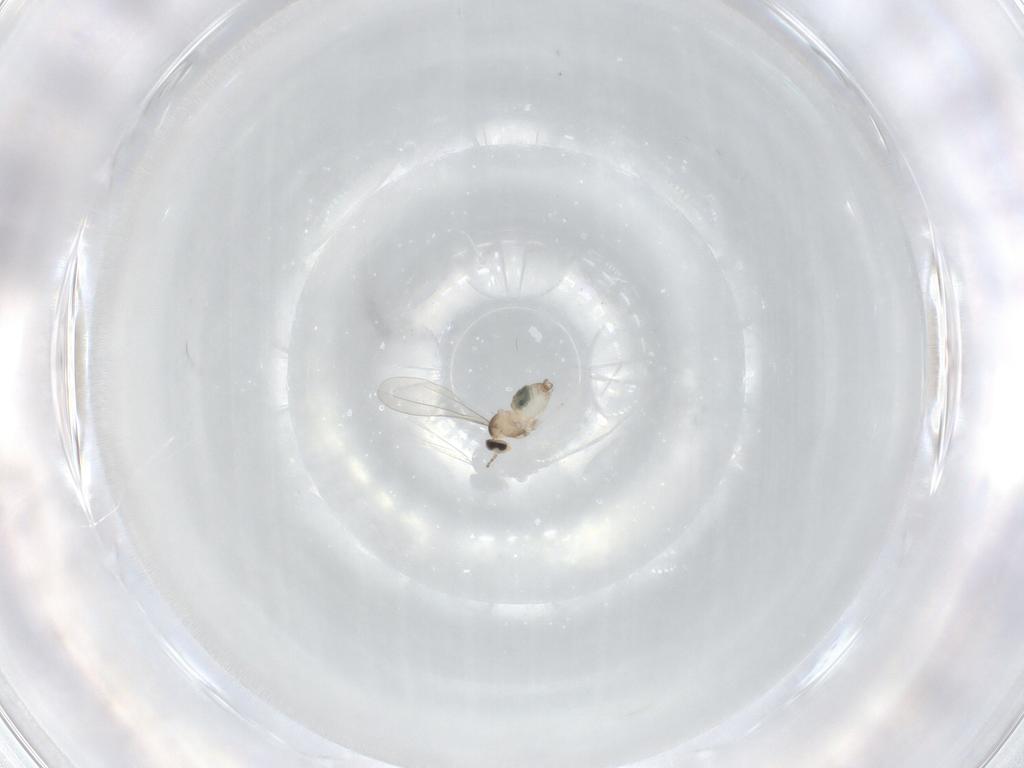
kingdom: Animalia
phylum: Arthropoda
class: Insecta
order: Diptera
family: Cecidomyiidae
